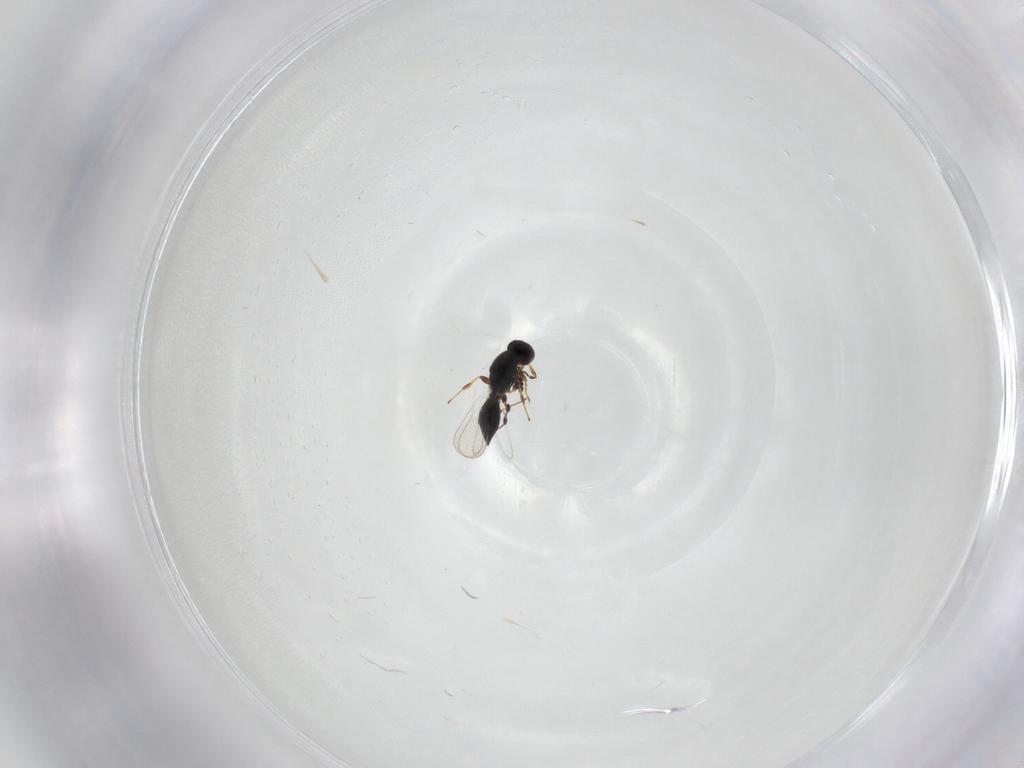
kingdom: Animalia
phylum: Arthropoda
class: Insecta
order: Hymenoptera
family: Platygastridae
